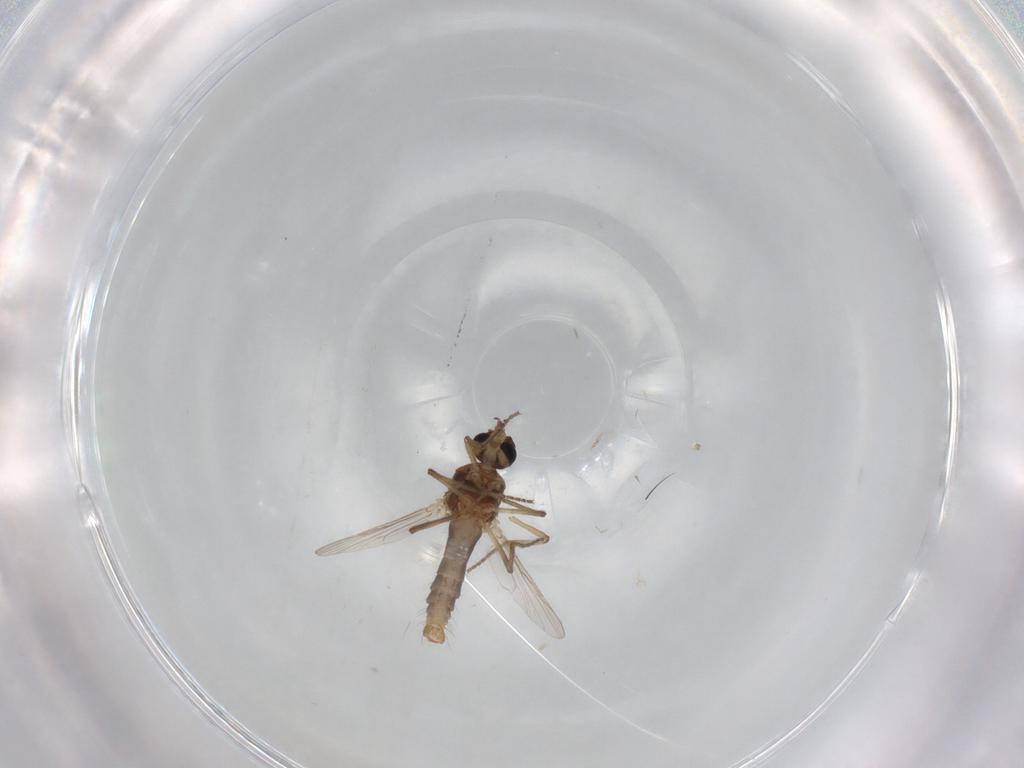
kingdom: Animalia
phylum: Arthropoda
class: Insecta
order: Diptera
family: Ceratopogonidae
